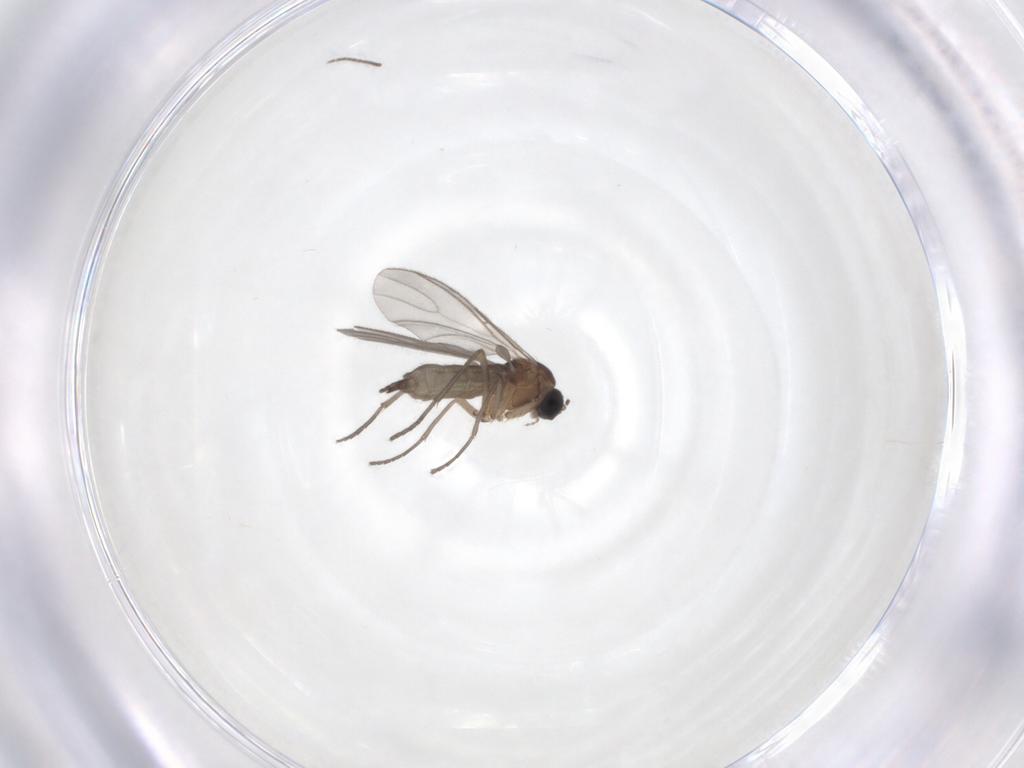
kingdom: Animalia
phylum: Arthropoda
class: Insecta
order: Diptera
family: Sciaridae
